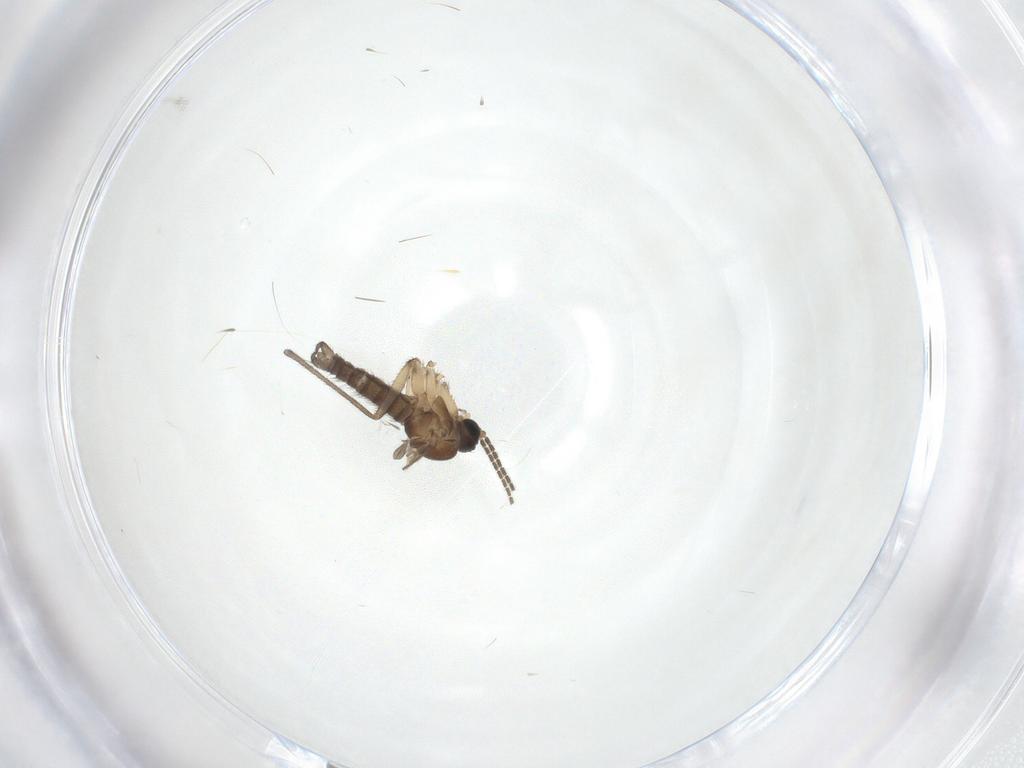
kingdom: Animalia
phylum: Arthropoda
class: Insecta
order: Diptera
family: Sciaridae
